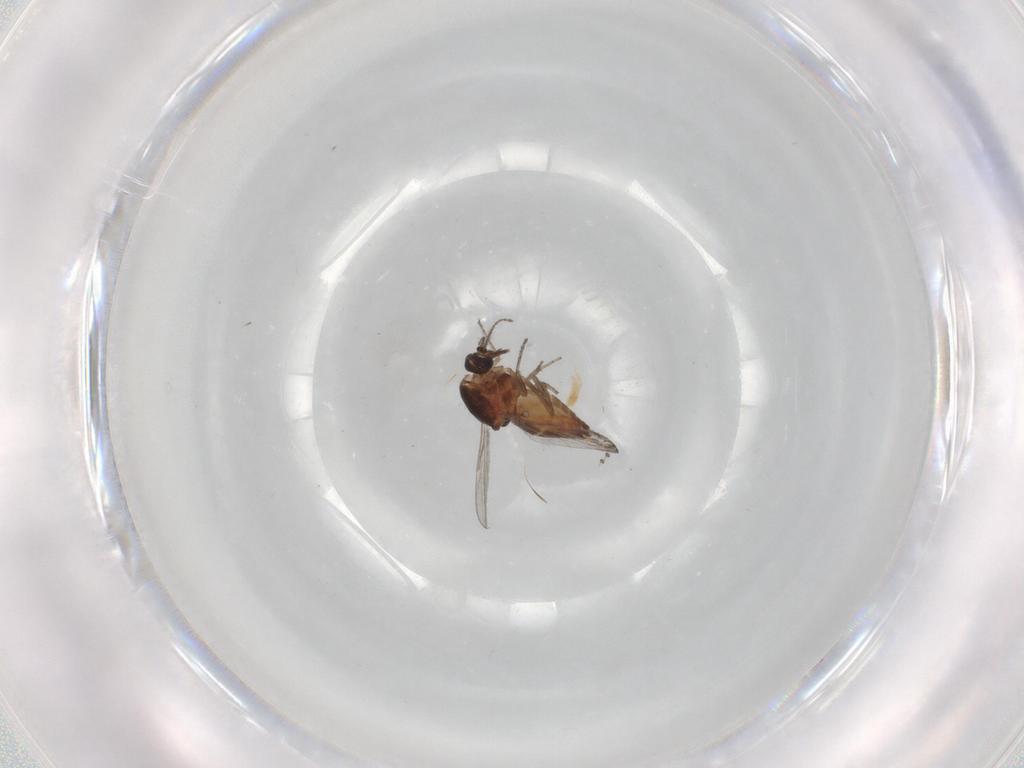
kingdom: Animalia
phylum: Arthropoda
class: Insecta
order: Diptera
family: Ceratopogonidae
